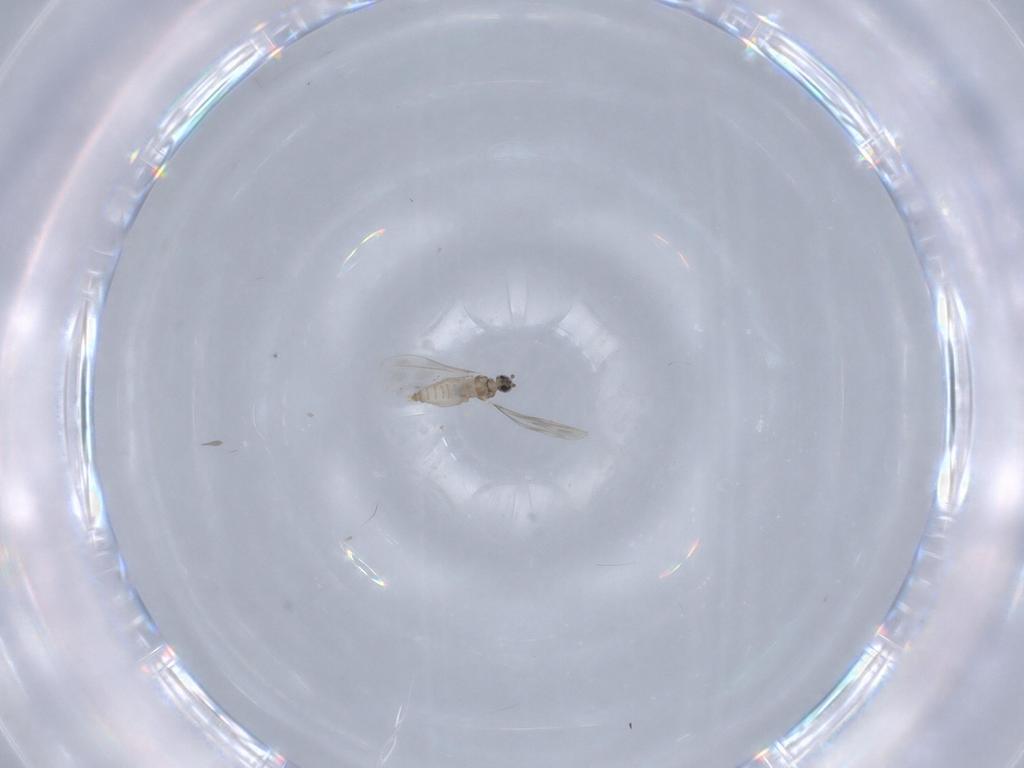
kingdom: Animalia
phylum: Arthropoda
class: Insecta
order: Diptera
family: Cecidomyiidae
